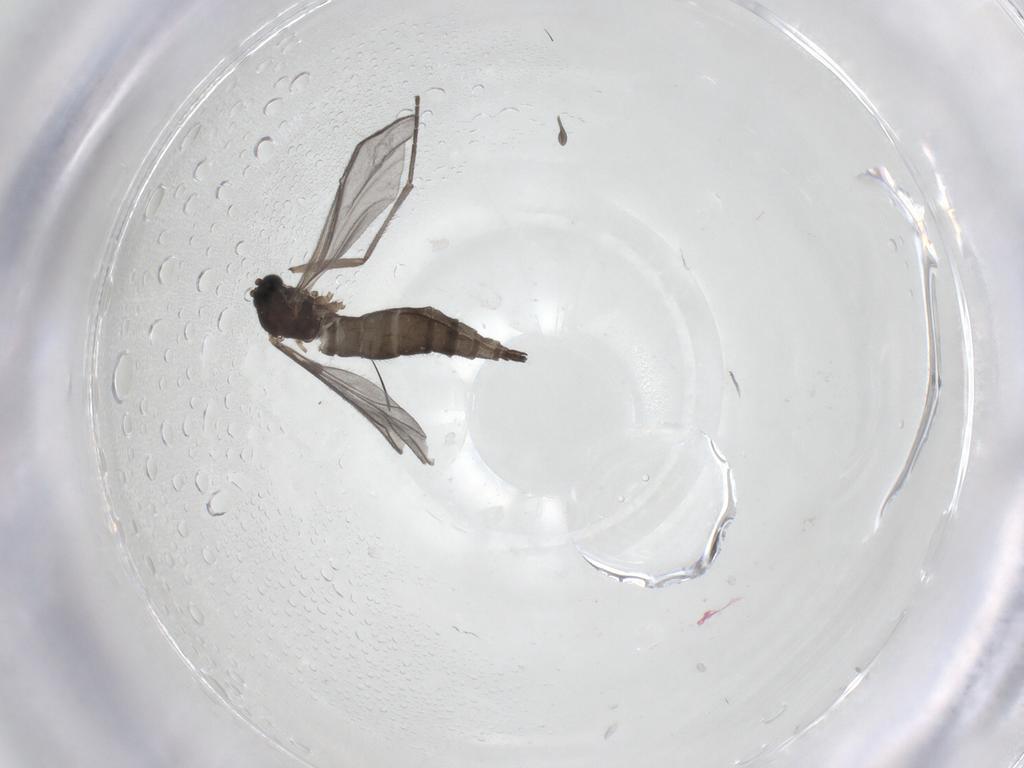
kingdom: Animalia
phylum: Arthropoda
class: Insecta
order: Diptera
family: Sciaridae
